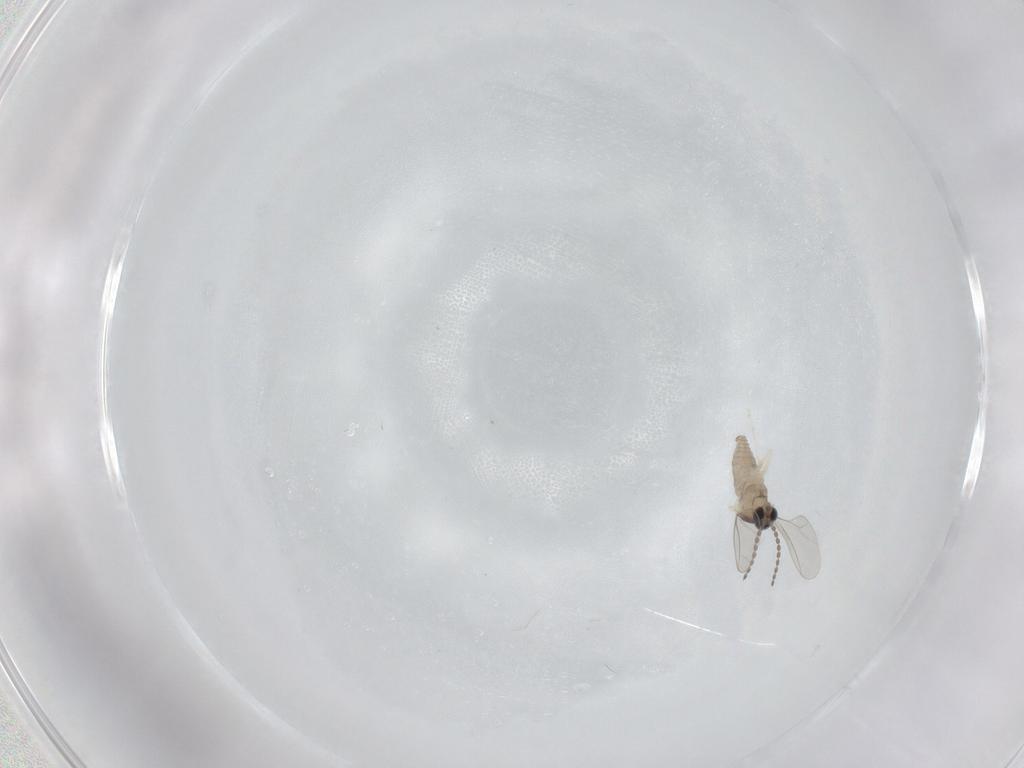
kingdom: Animalia
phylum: Arthropoda
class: Insecta
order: Diptera
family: Cecidomyiidae
